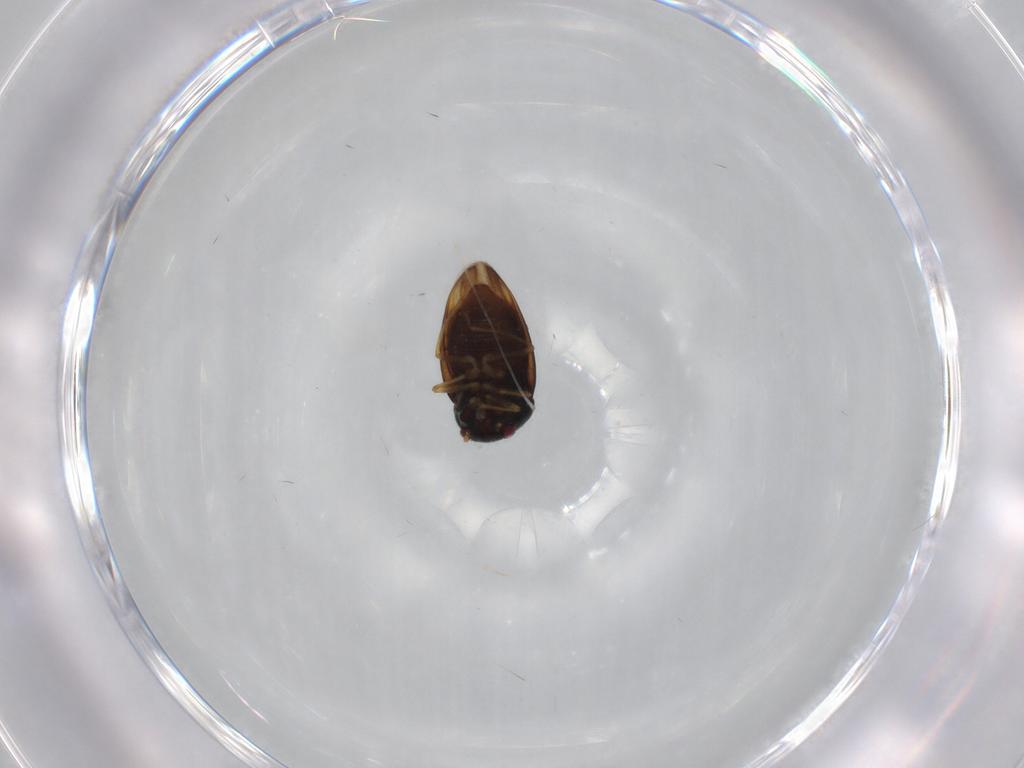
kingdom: Animalia
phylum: Arthropoda
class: Insecta
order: Hemiptera
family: Schizopteridae
